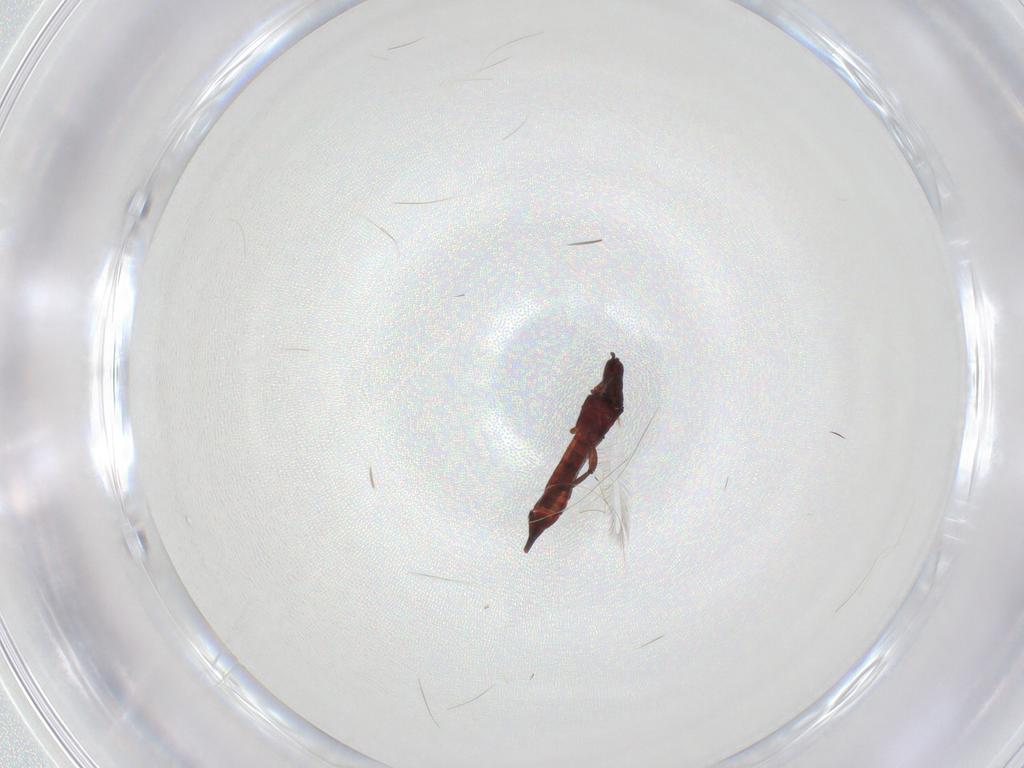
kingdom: Animalia
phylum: Arthropoda
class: Insecta
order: Thysanoptera
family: Phlaeothripidae
